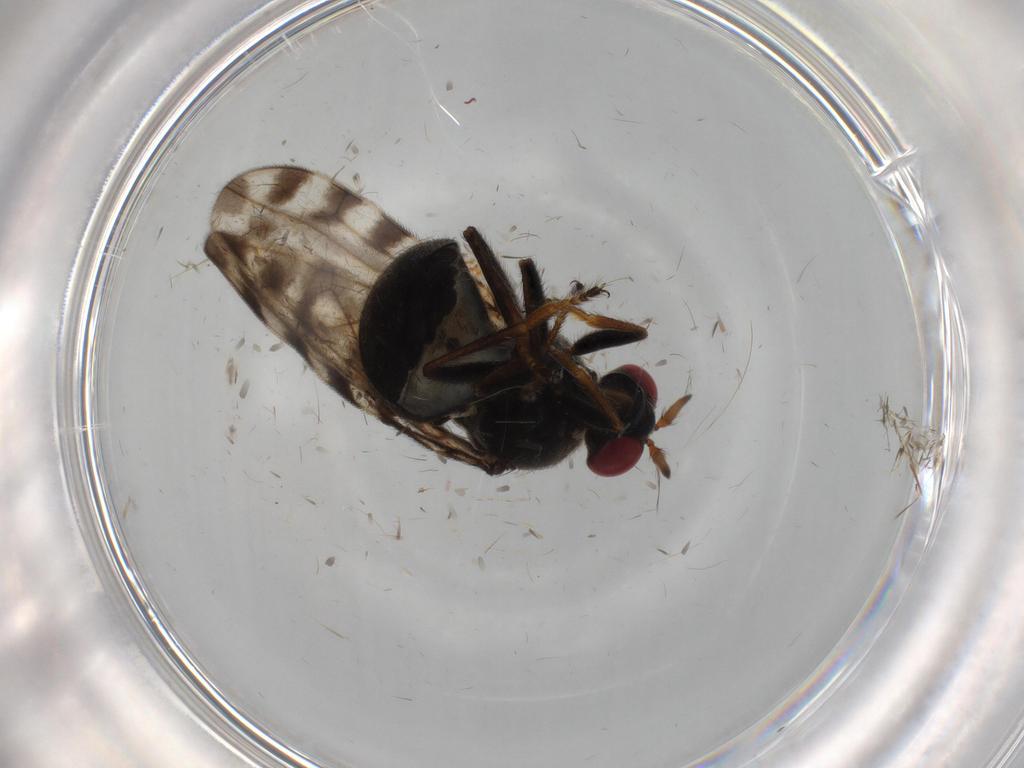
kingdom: Animalia
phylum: Arthropoda
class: Insecta
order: Diptera
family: Ephydridae
